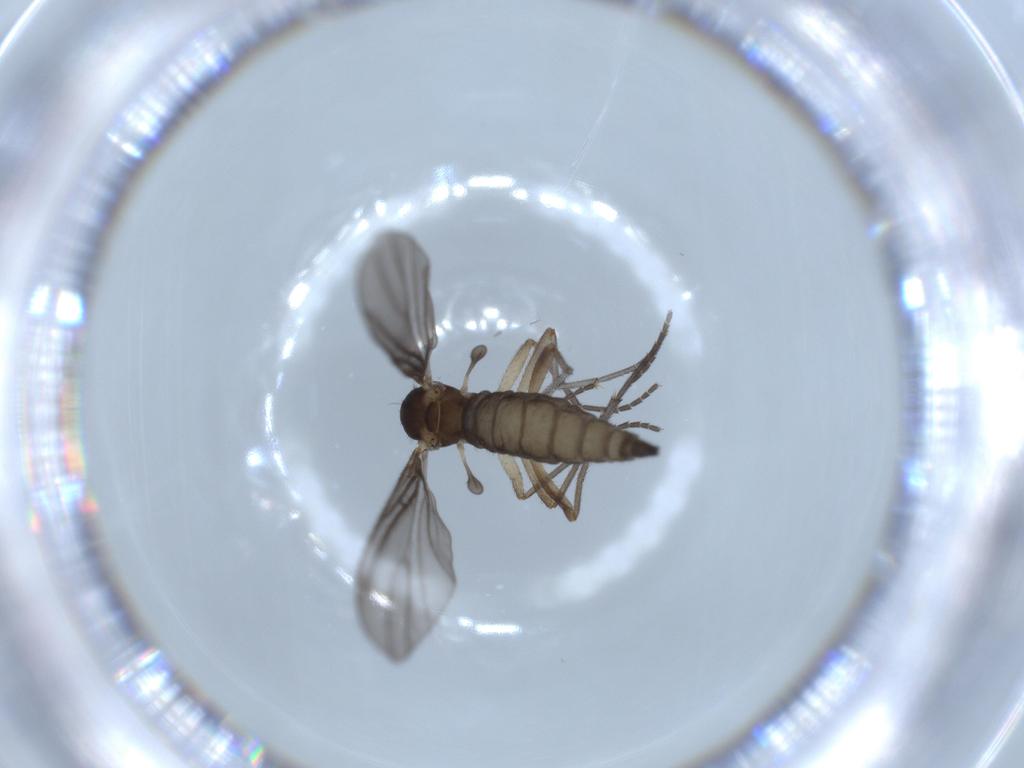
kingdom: Animalia
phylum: Arthropoda
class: Insecta
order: Diptera
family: Sciaridae
